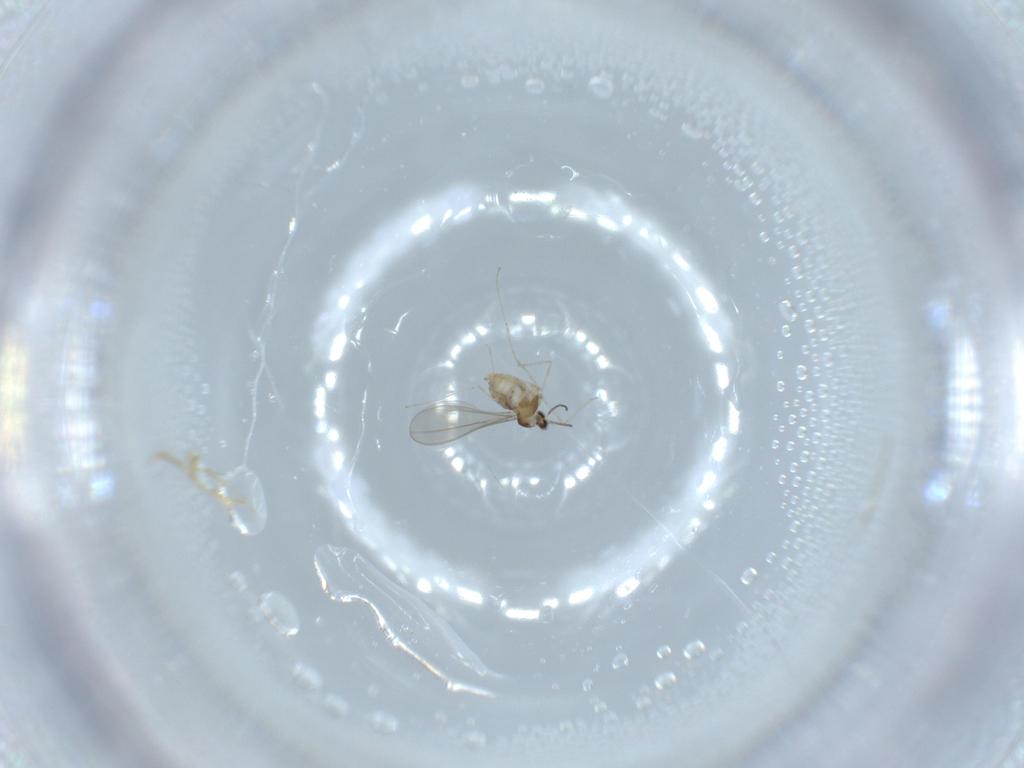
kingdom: Animalia
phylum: Arthropoda
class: Insecta
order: Diptera
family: Cecidomyiidae
